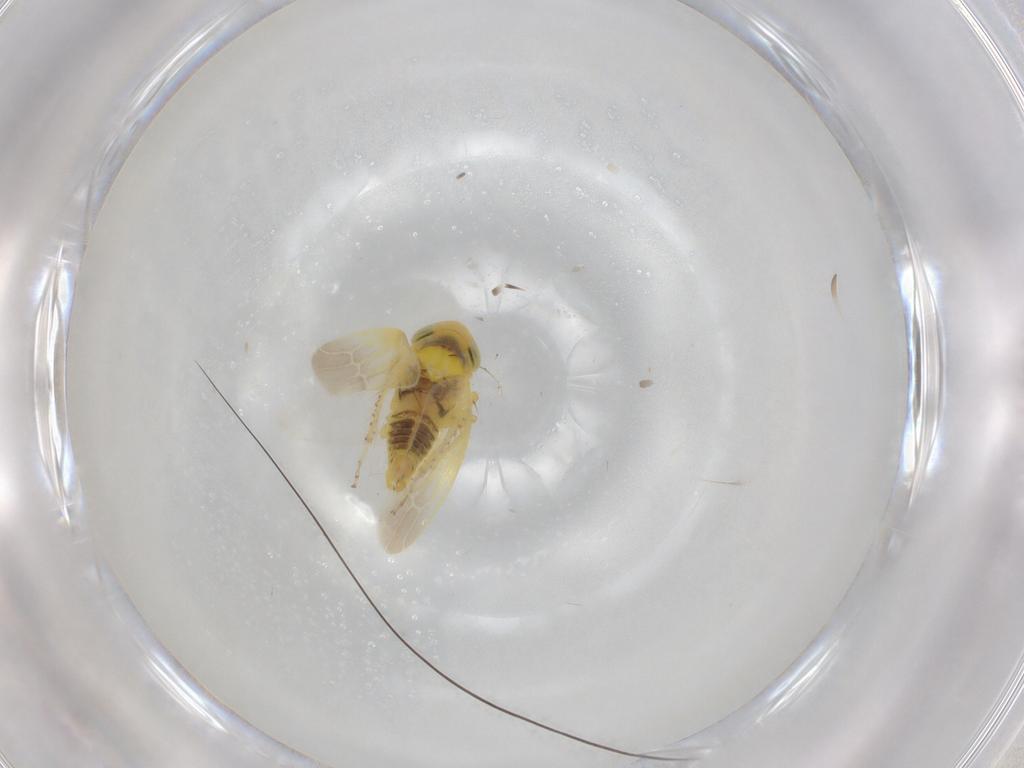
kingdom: Animalia
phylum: Arthropoda
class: Insecta
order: Hemiptera
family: Cicadellidae
